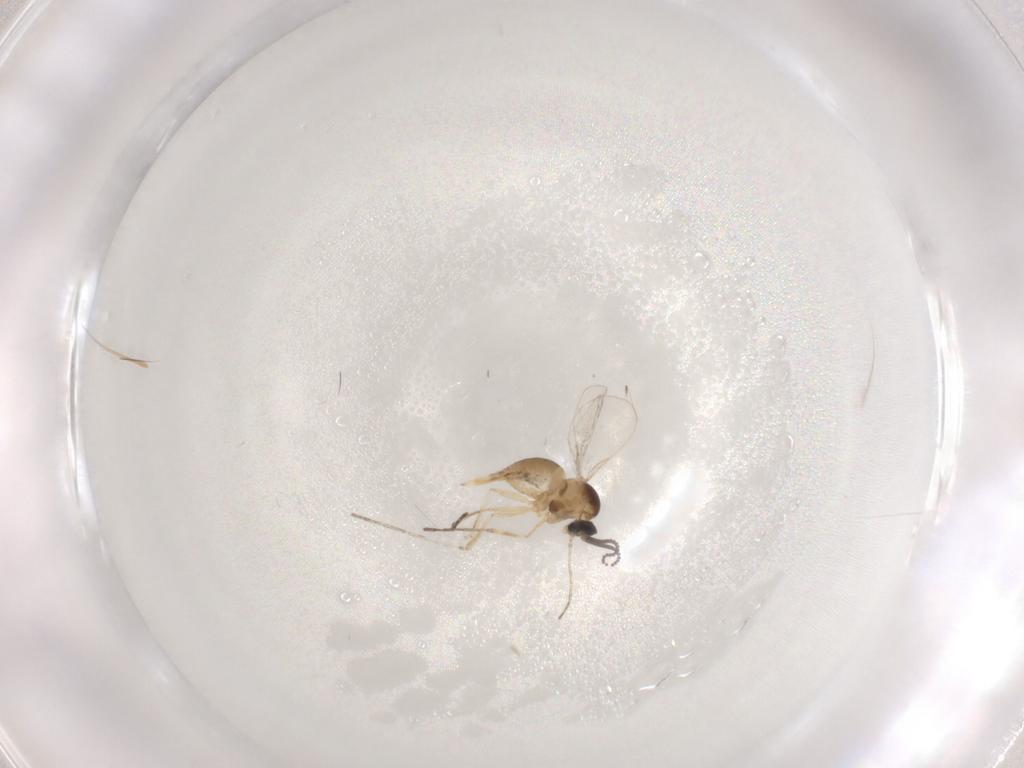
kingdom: Animalia
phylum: Arthropoda
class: Insecta
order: Diptera
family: Cecidomyiidae
